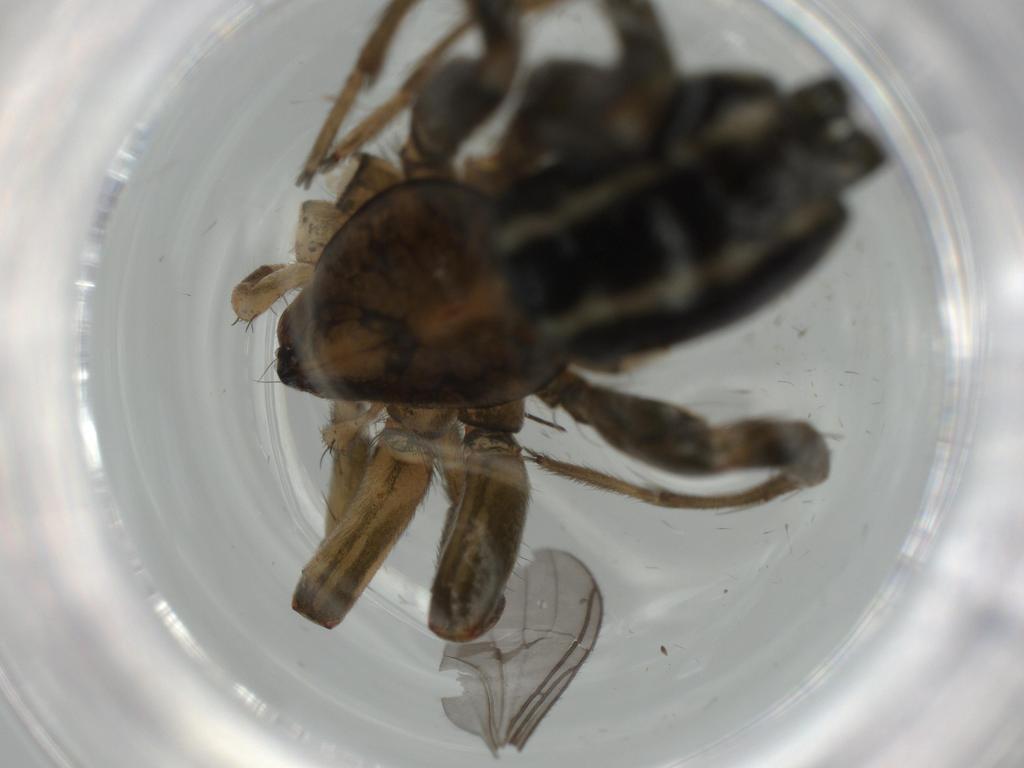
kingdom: Animalia
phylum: Arthropoda
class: Arachnida
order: Araneae
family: Gnaphosidae
